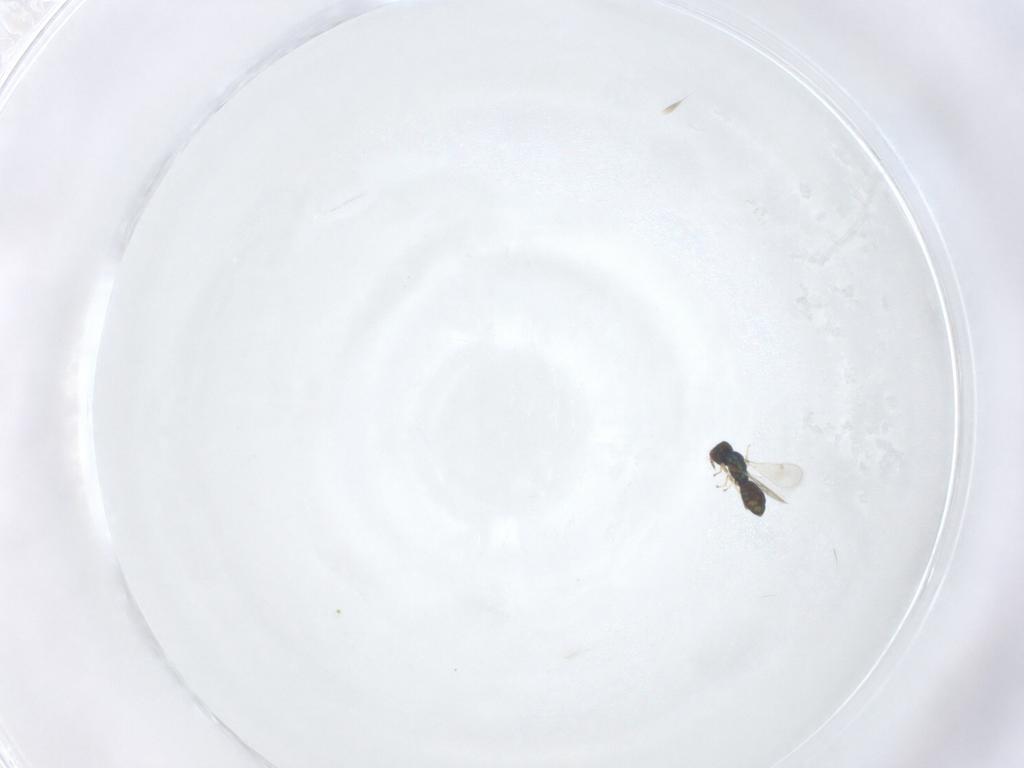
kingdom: Animalia
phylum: Arthropoda
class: Insecta
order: Hymenoptera
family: Eulophidae
